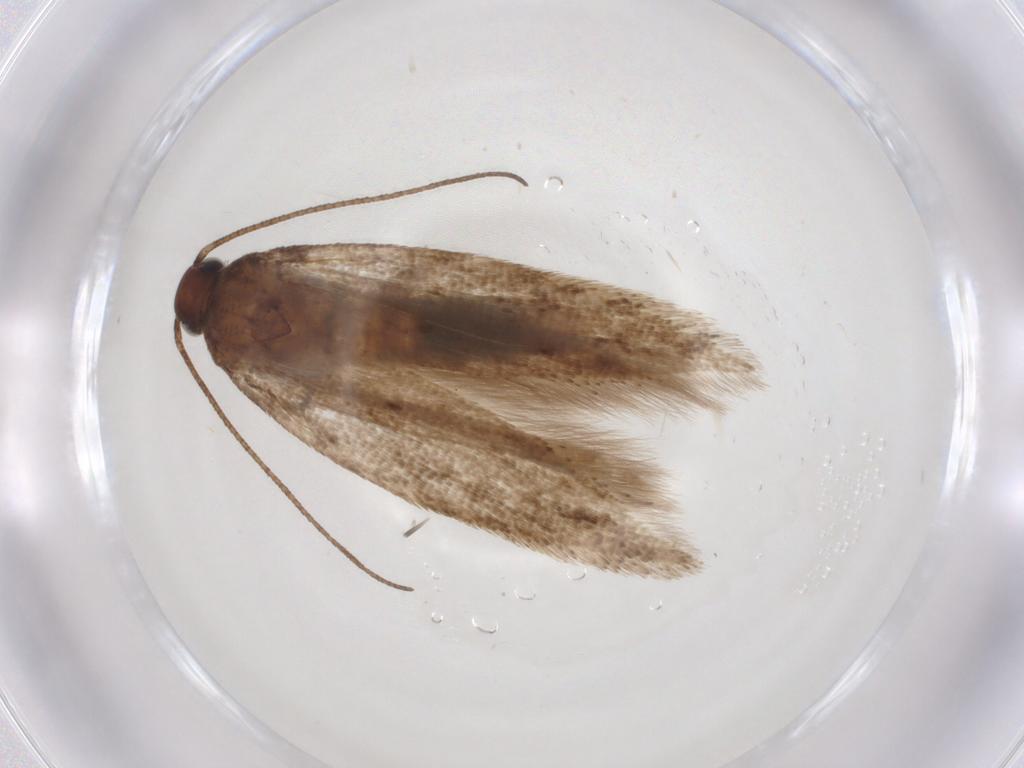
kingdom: Animalia
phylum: Arthropoda
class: Insecta
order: Lepidoptera
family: Gelechiidae
